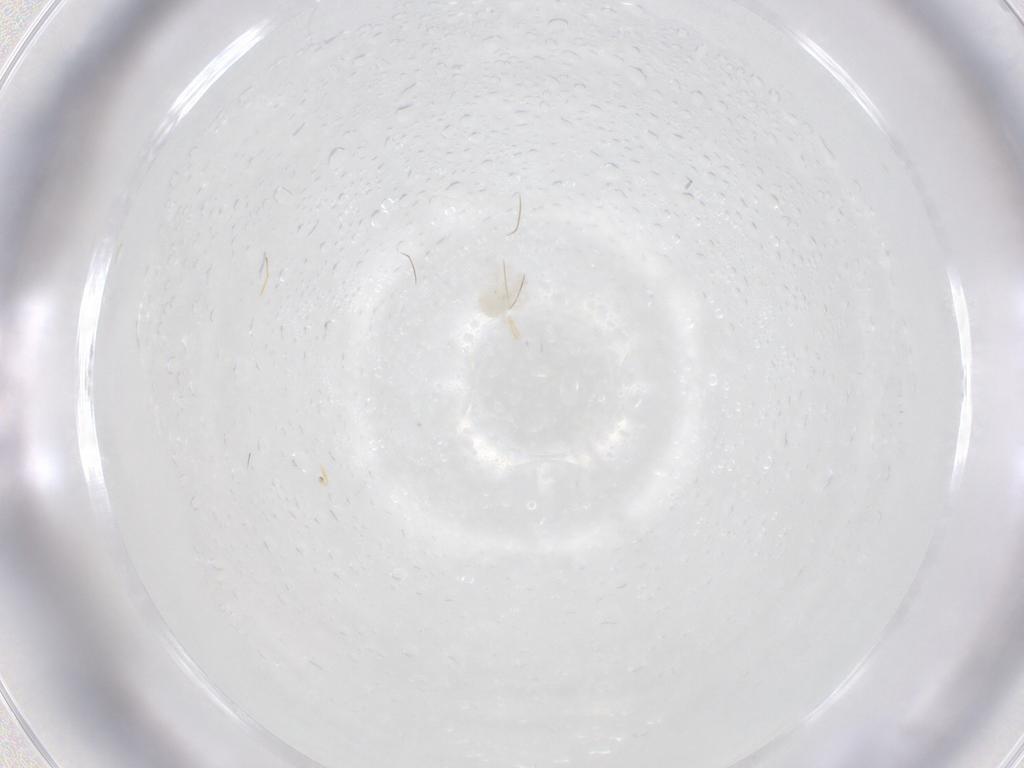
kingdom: Animalia
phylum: Arthropoda
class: Arachnida
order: Trombidiformes
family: Anystidae
